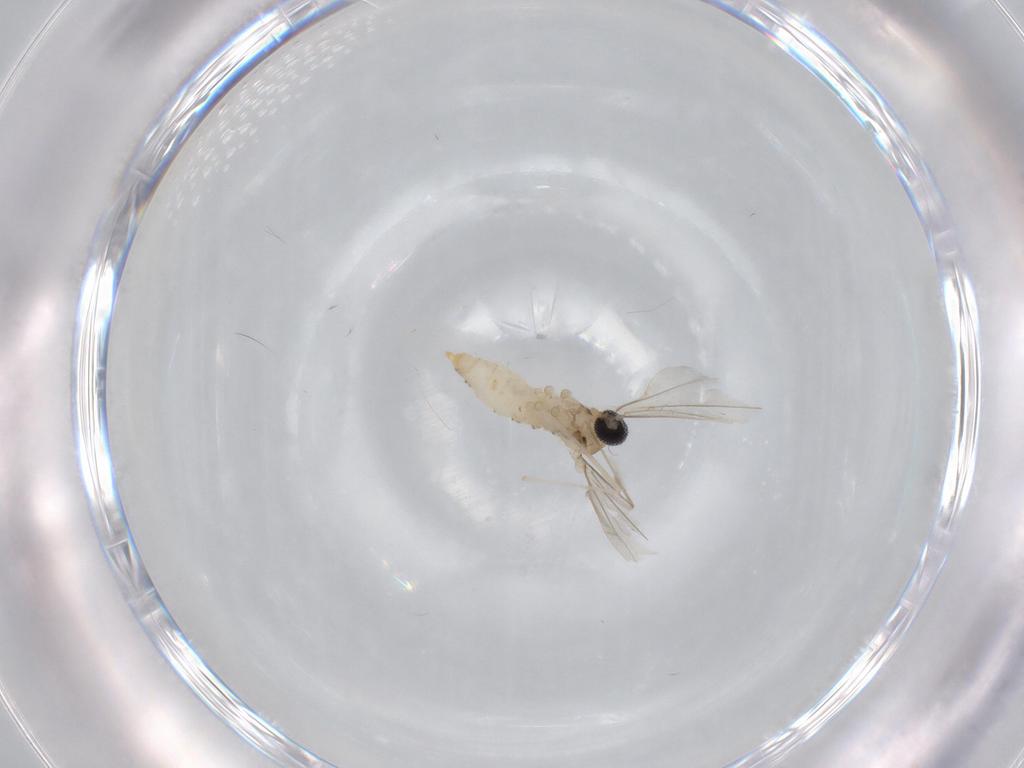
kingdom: Animalia
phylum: Arthropoda
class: Insecta
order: Diptera
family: Cecidomyiidae
